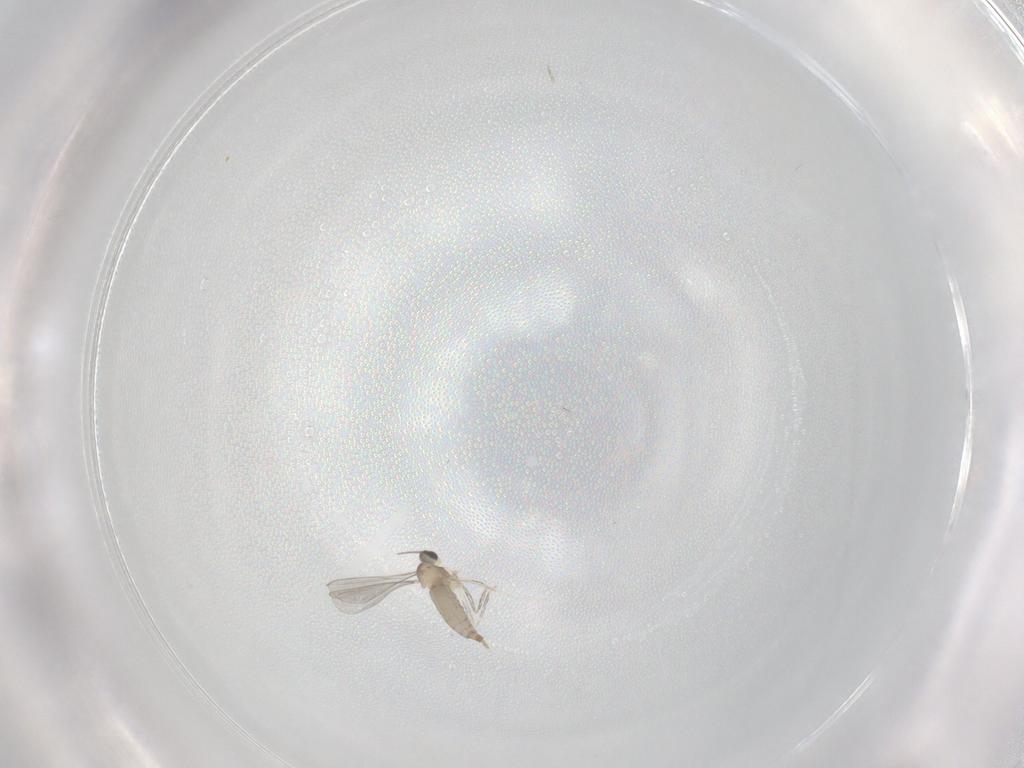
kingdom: Animalia
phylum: Arthropoda
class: Insecta
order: Diptera
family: Cecidomyiidae
